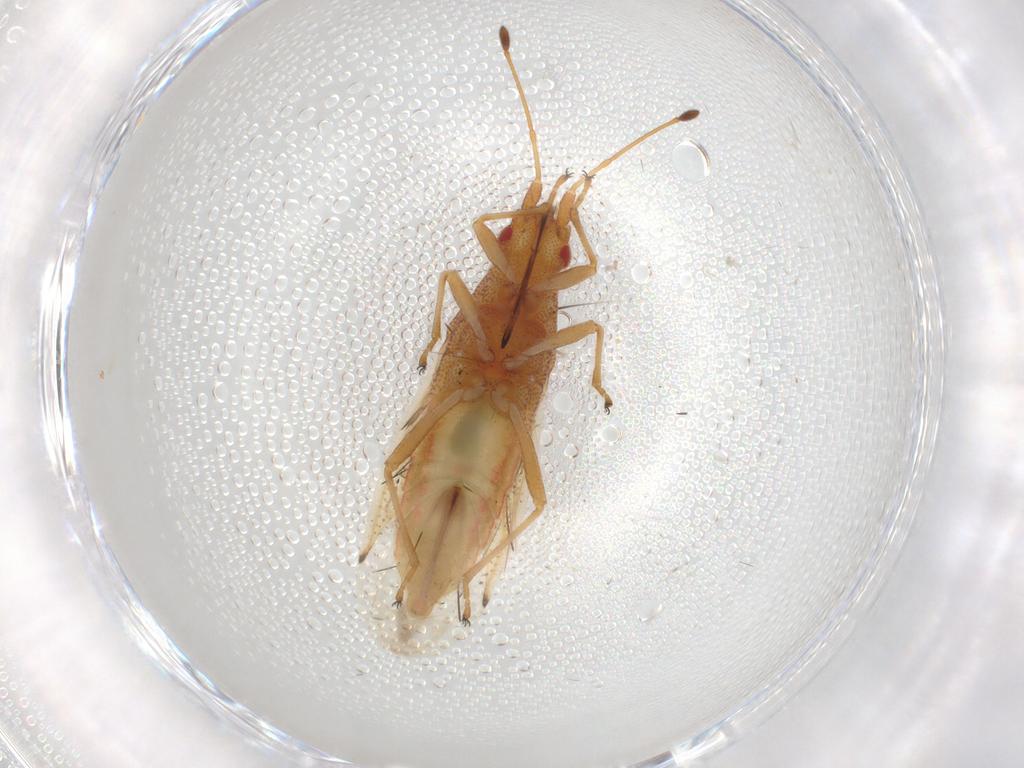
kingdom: Animalia
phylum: Arthropoda
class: Insecta
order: Hemiptera
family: Cymidae
